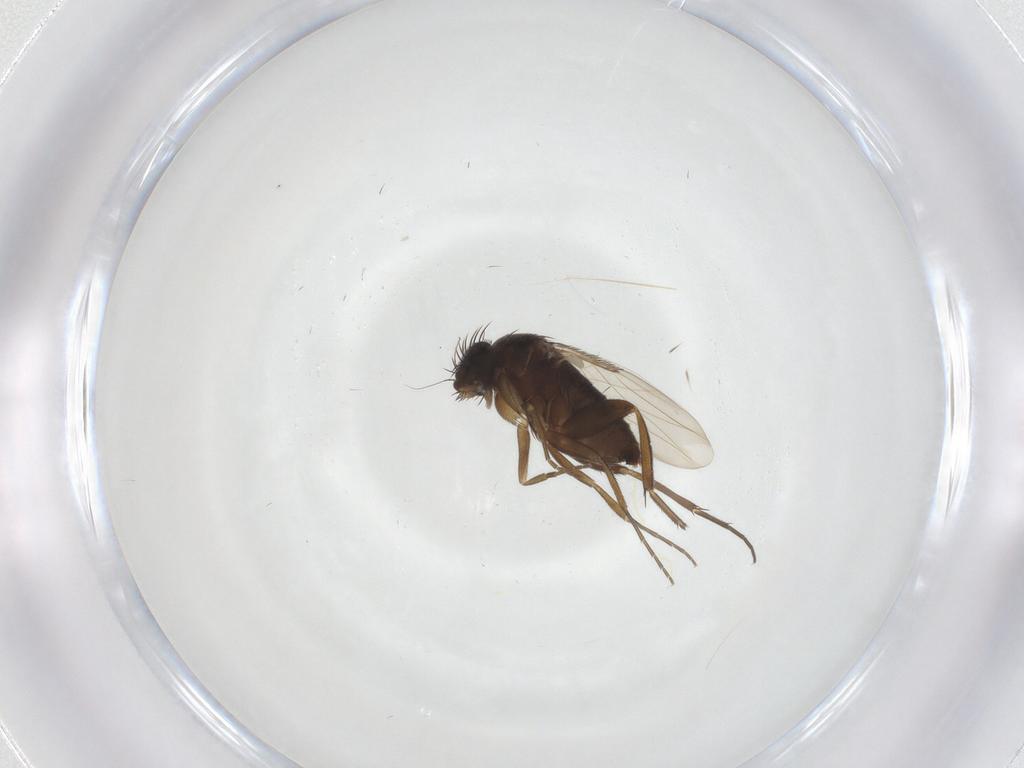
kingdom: Animalia
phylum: Arthropoda
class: Insecta
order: Diptera
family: Phoridae
